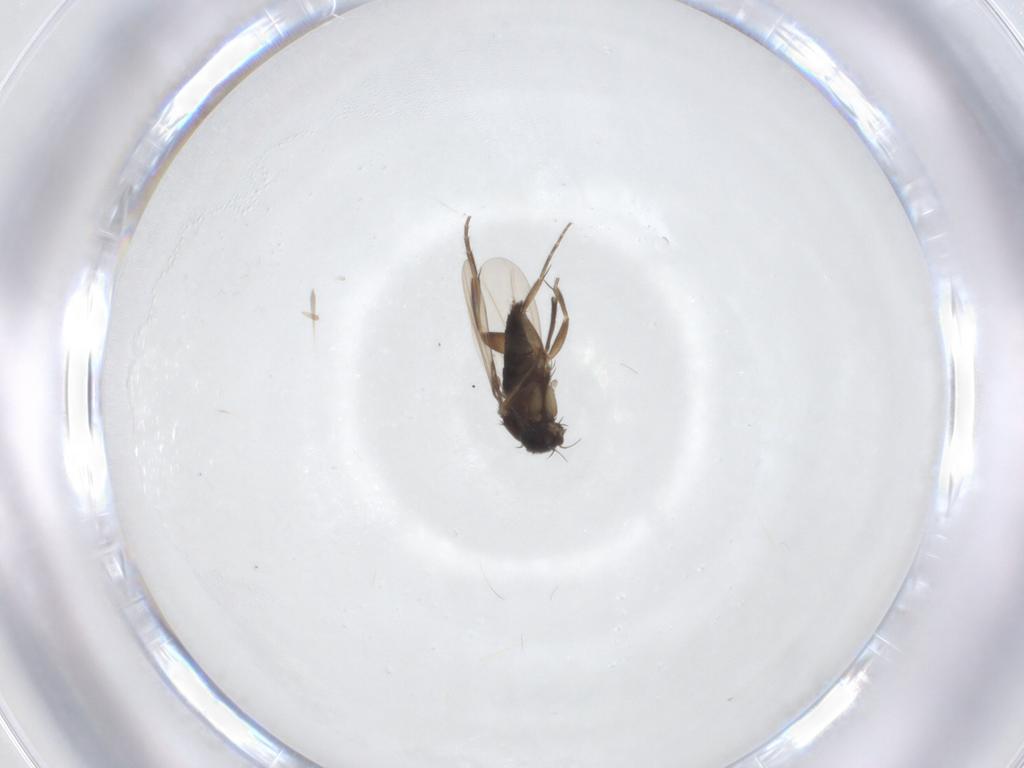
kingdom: Animalia
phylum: Arthropoda
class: Insecta
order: Diptera
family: Phoridae
